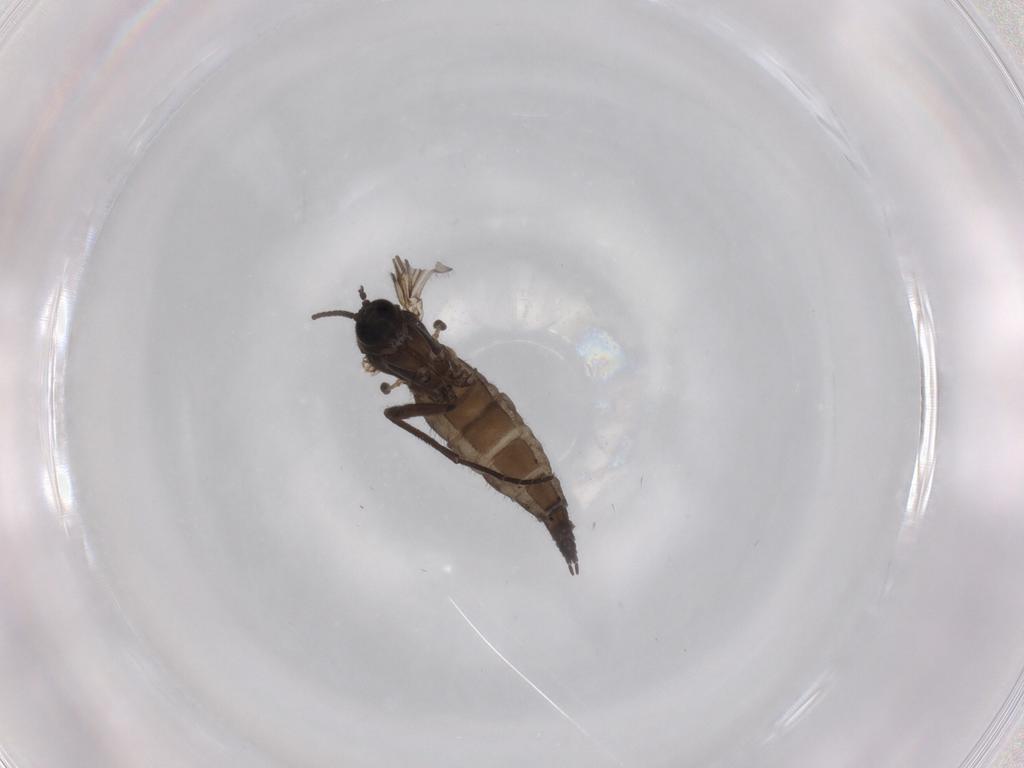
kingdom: Animalia
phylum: Arthropoda
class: Insecta
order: Diptera
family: Sciaridae
